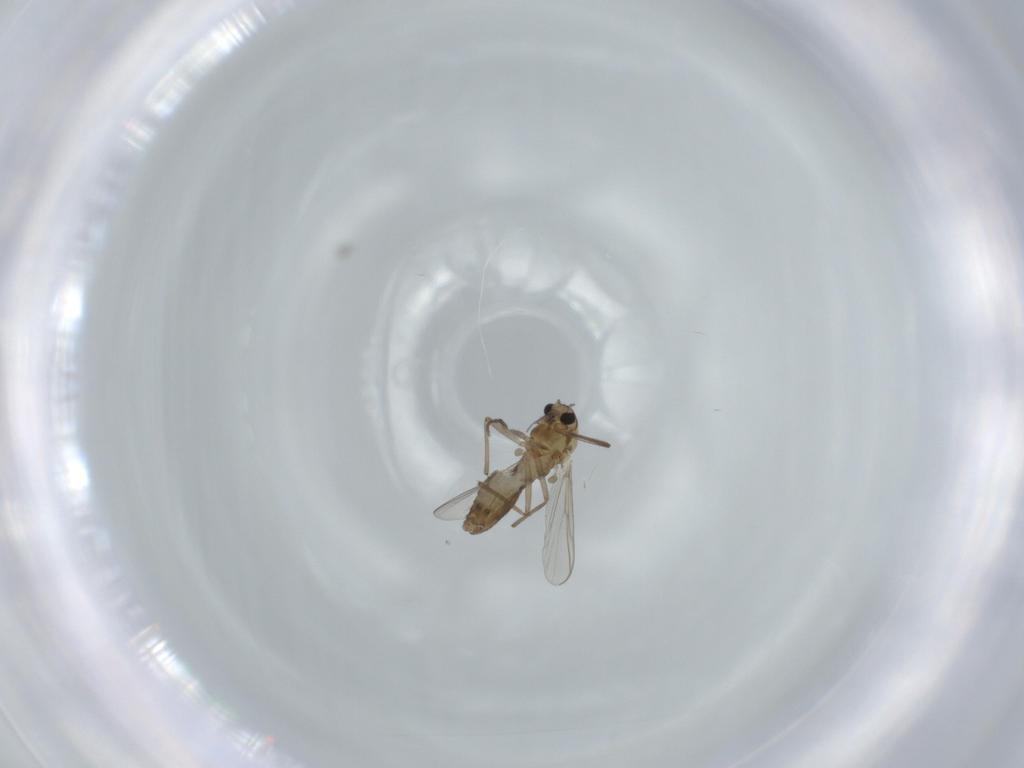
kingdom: Animalia
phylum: Arthropoda
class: Insecta
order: Diptera
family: Chironomidae
